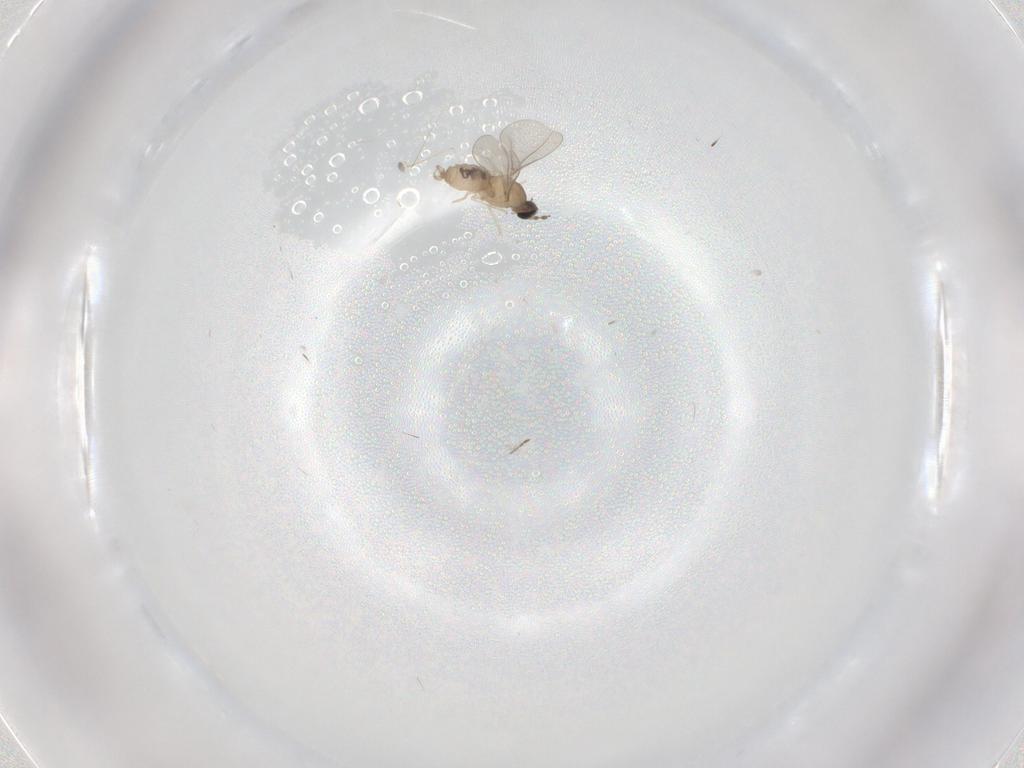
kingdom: Animalia
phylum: Arthropoda
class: Insecta
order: Diptera
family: Cecidomyiidae
